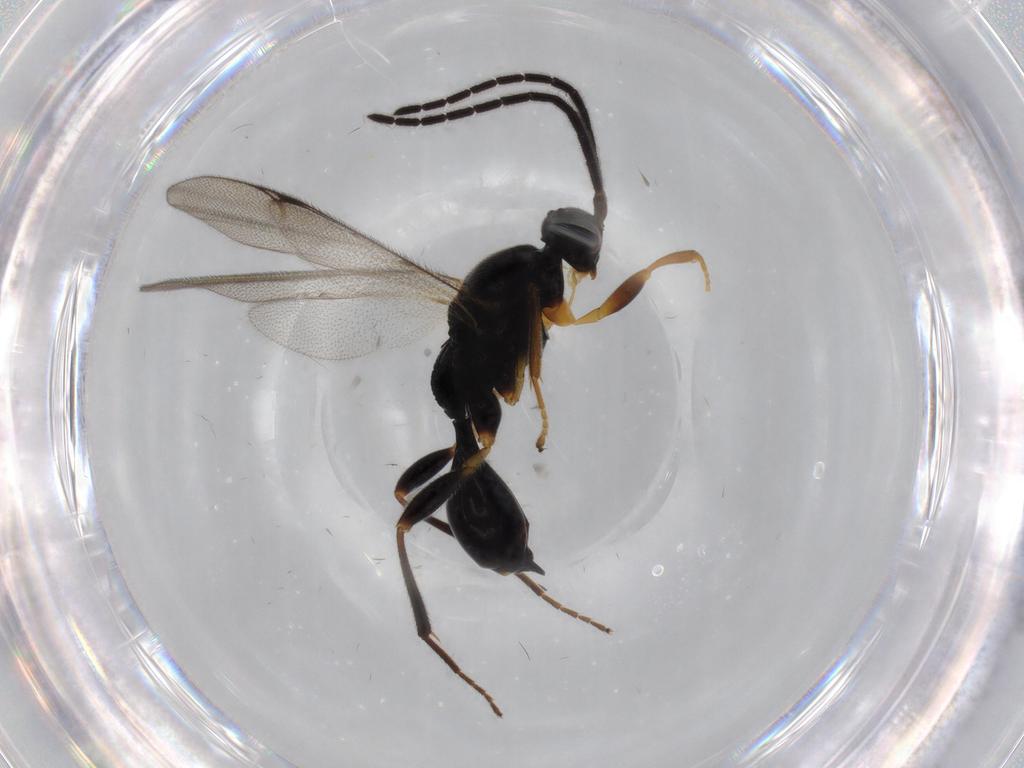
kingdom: Animalia
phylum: Arthropoda
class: Insecta
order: Hymenoptera
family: Proctotrupidae
